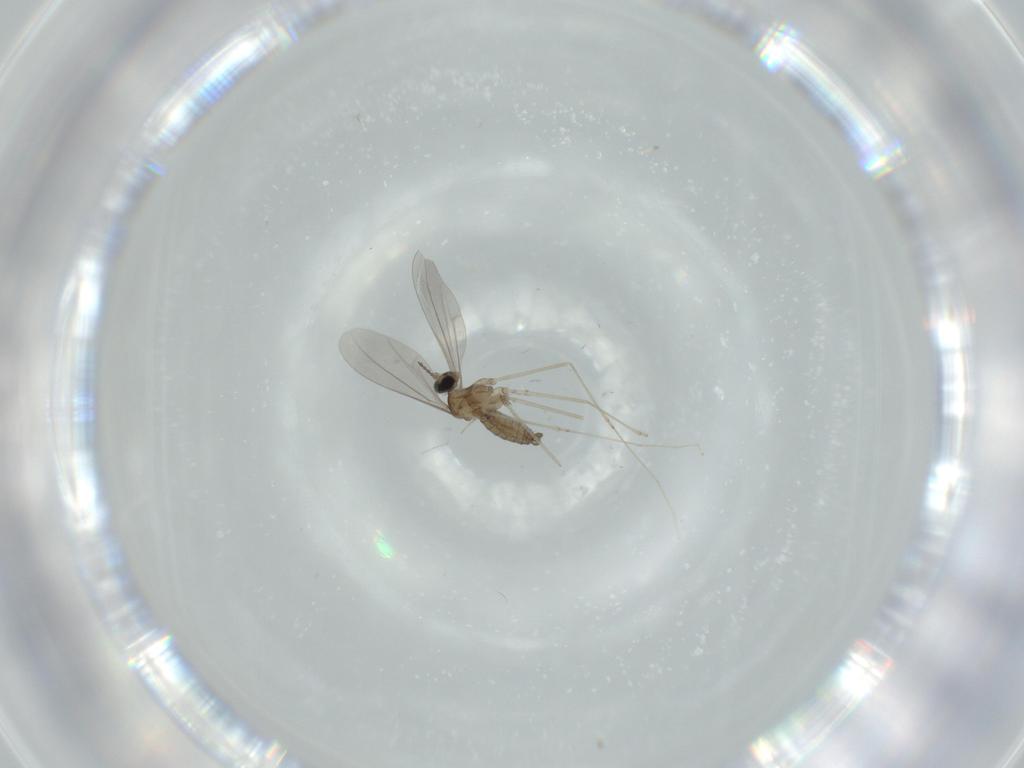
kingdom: Animalia
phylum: Arthropoda
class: Insecta
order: Diptera
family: Cecidomyiidae
